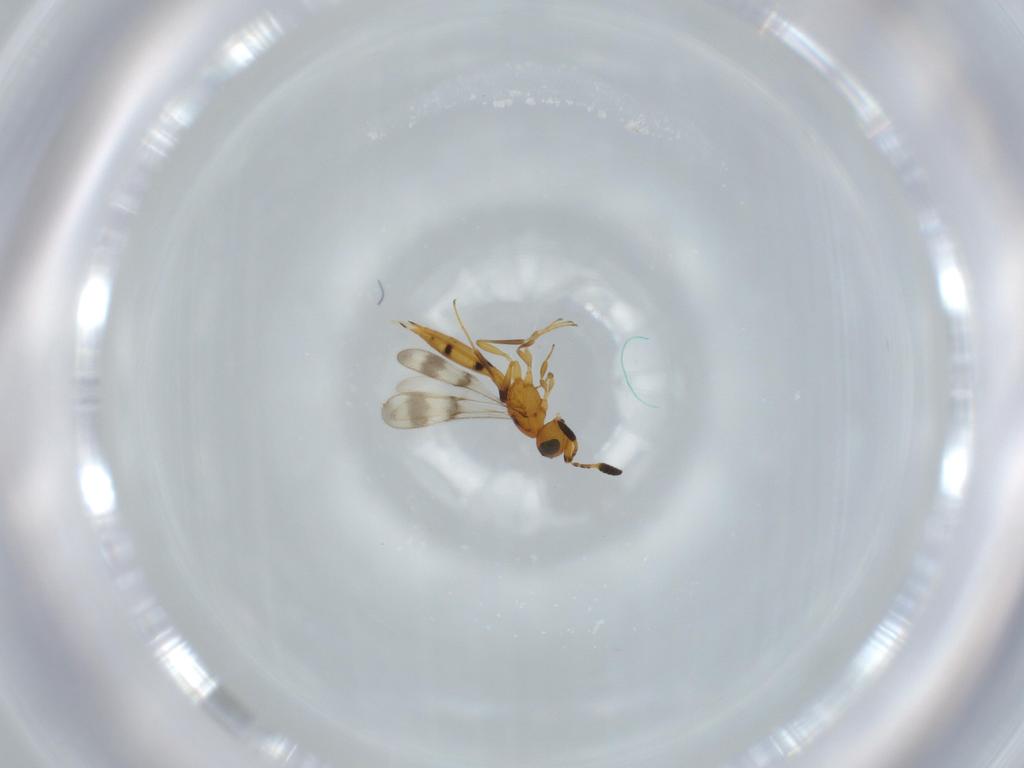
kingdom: Animalia
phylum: Arthropoda
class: Insecta
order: Hymenoptera
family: Scelionidae
